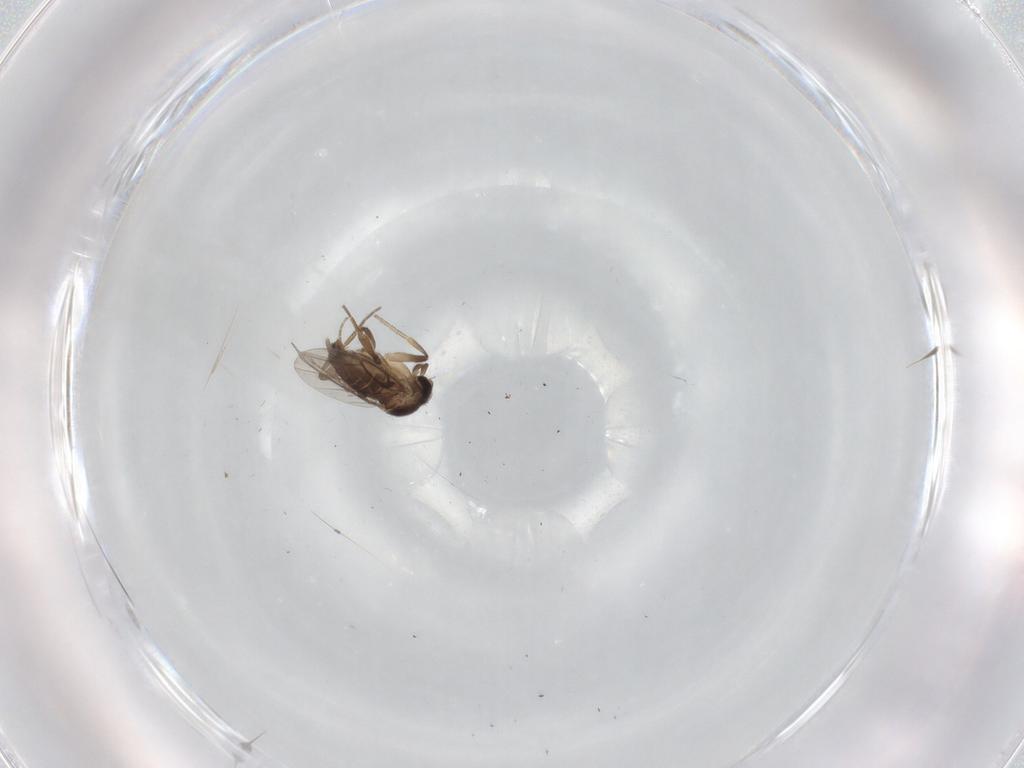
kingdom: Animalia
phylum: Arthropoda
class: Insecta
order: Diptera
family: Phoridae
